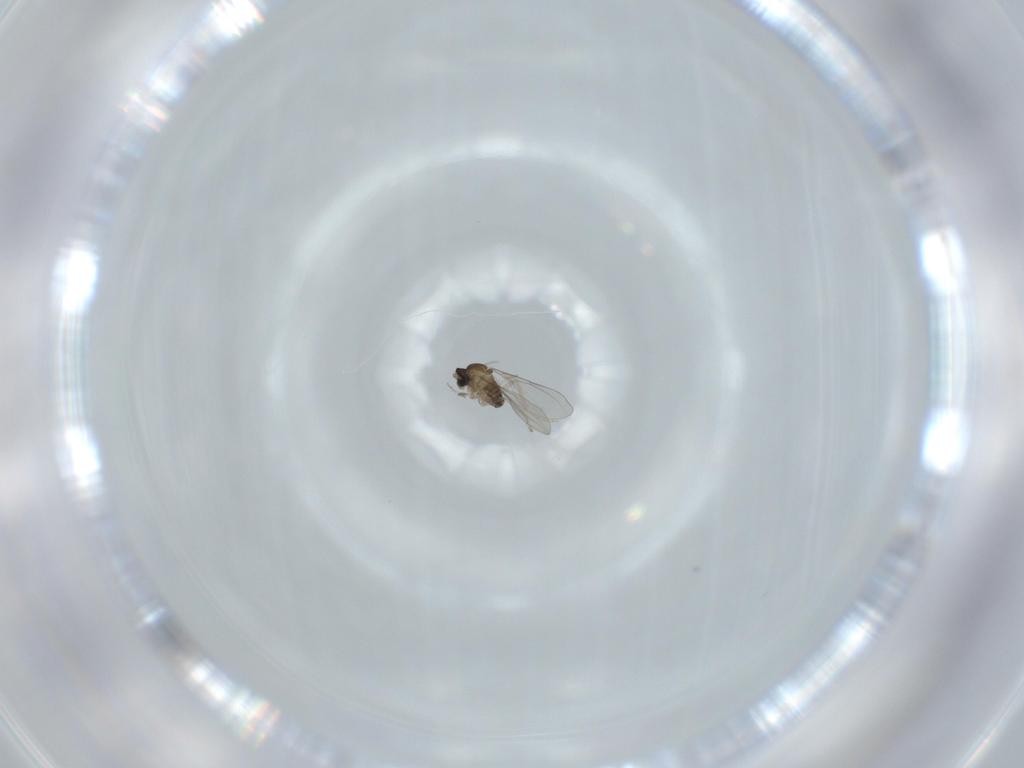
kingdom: Animalia
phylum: Arthropoda
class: Insecta
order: Diptera
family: Cecidomyiidae
